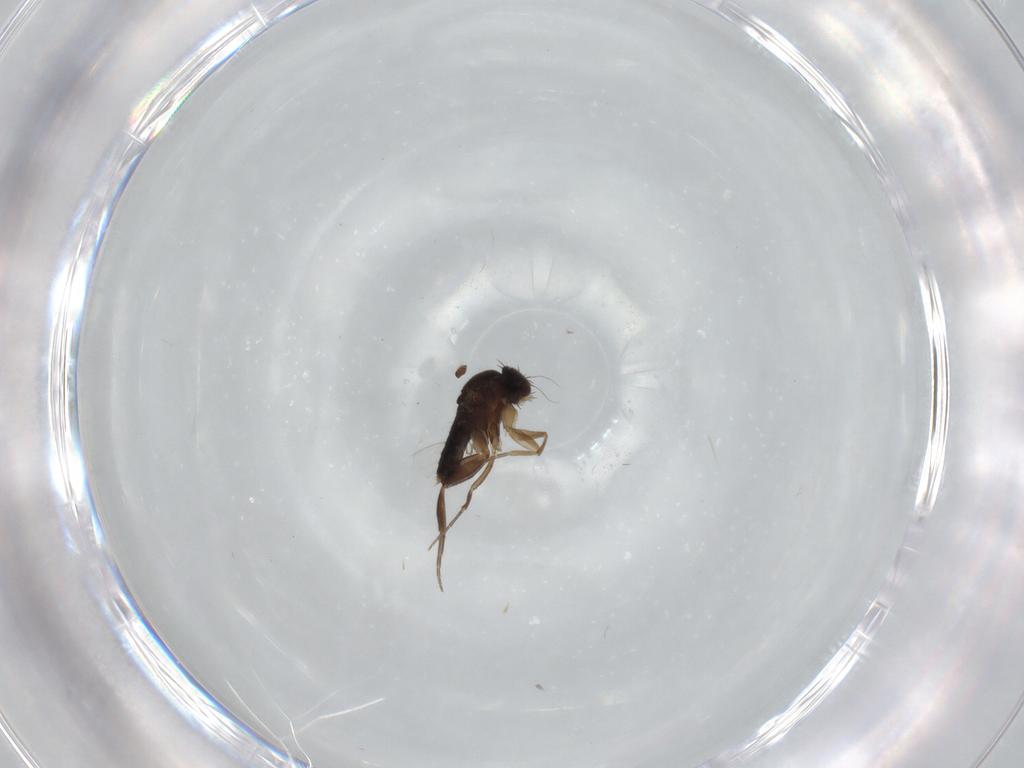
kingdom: Animalia
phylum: Arthropoda
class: Insecta
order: Diptera
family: Phoridae
